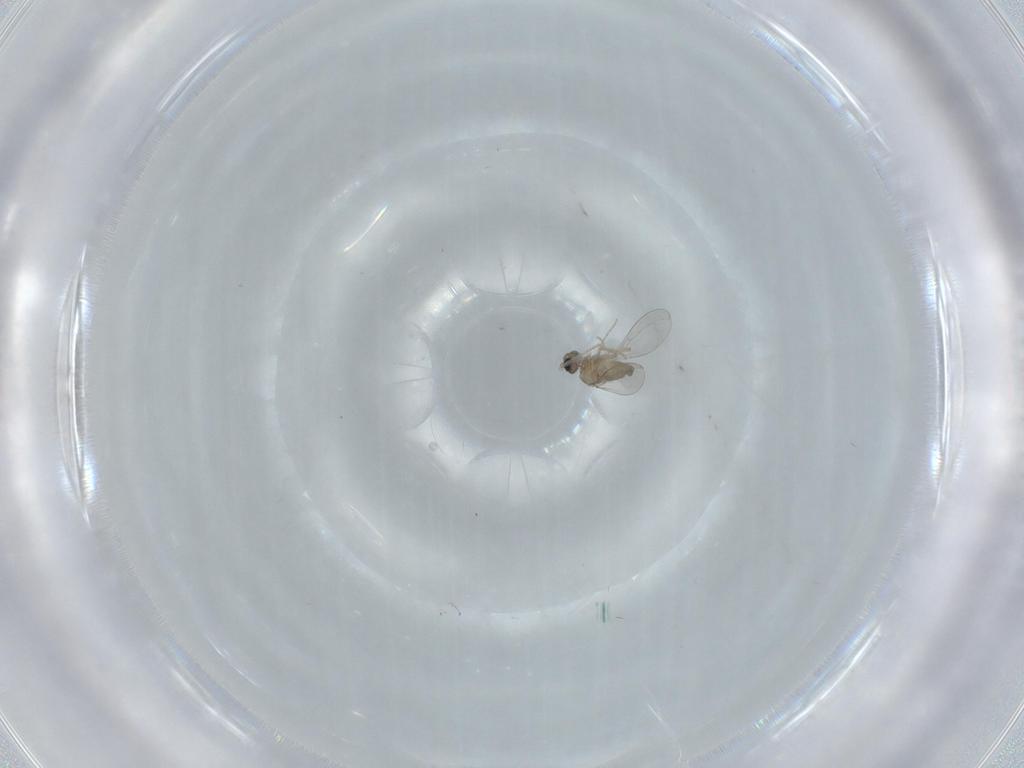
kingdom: Animalia
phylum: Arthropoda
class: Insecta
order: Diptera
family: Cecidomyiidae
